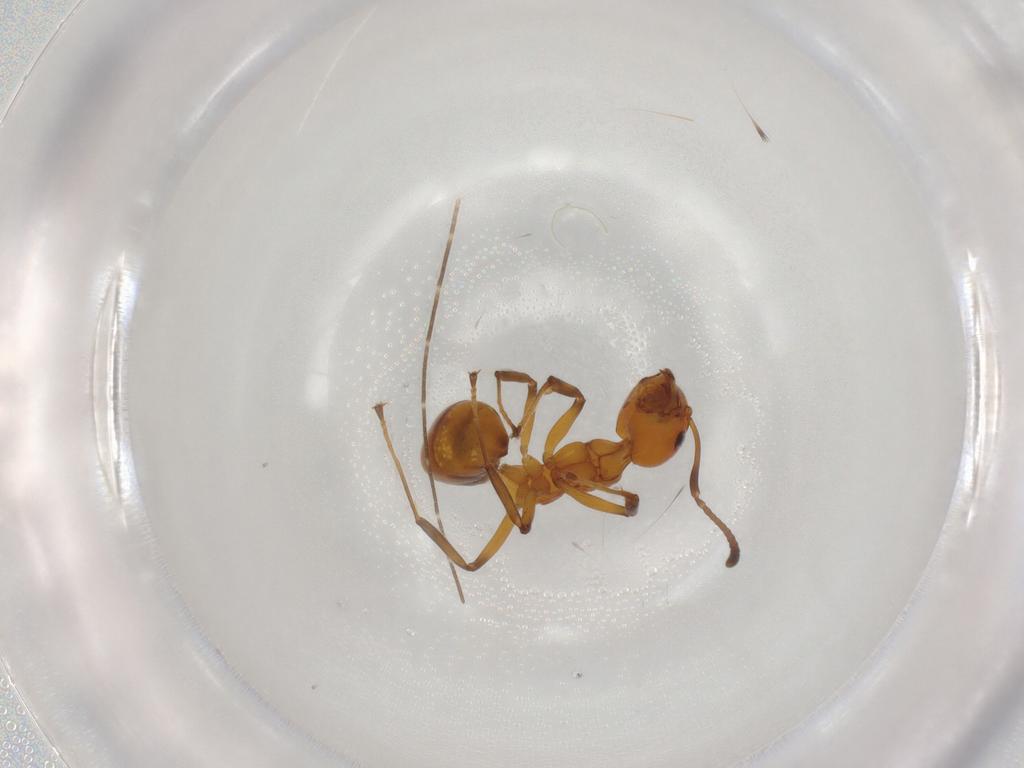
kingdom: Animalia
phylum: Arthropoda
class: Insecta
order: Hymenoptera
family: Formicidae
